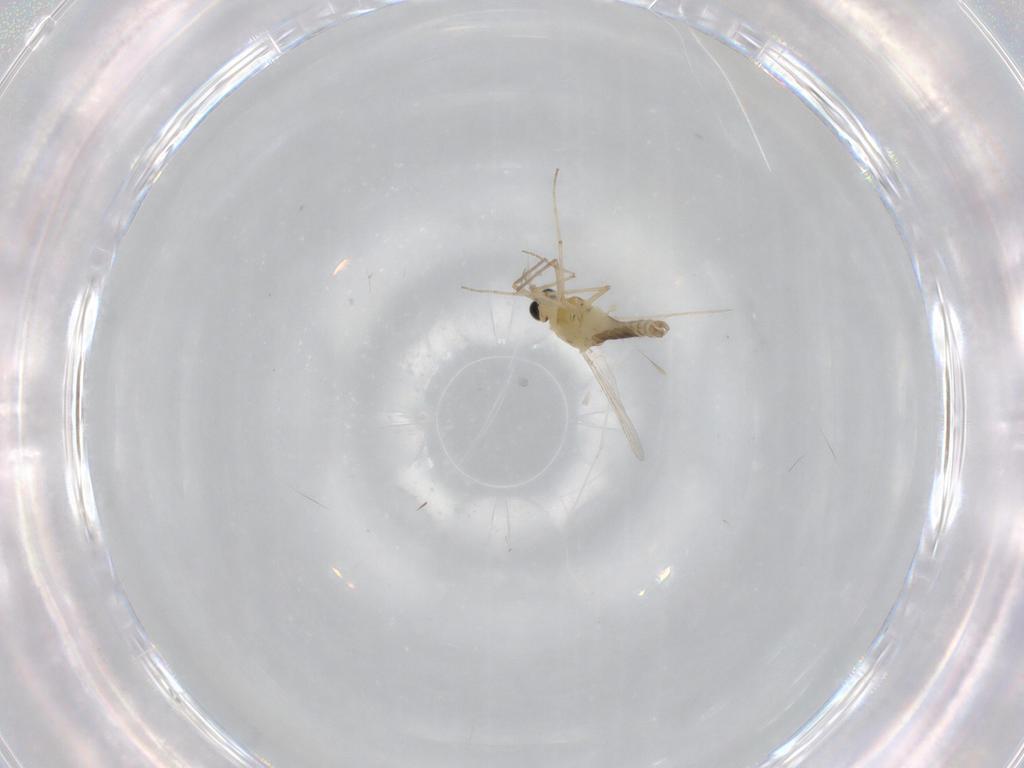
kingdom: Animalia
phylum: Arthropoda
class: Insecta
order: Diptera
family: Chironomidae
